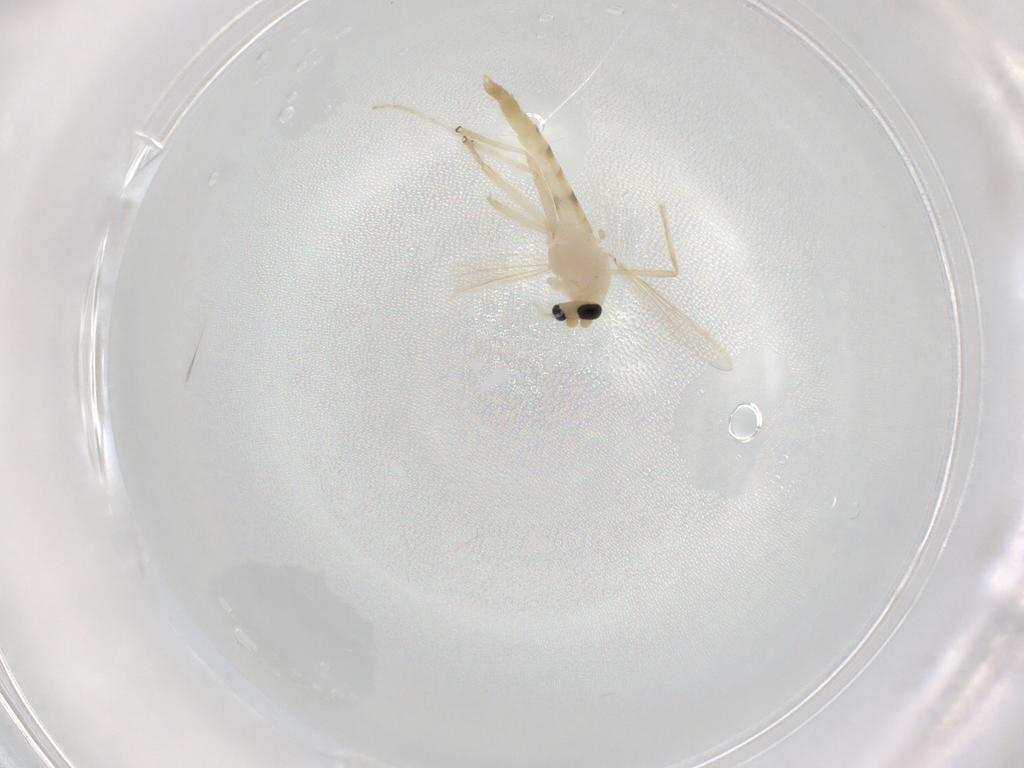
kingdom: Animalia
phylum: Arthropoda
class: Insecta
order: Diptera
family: Chironomidae
